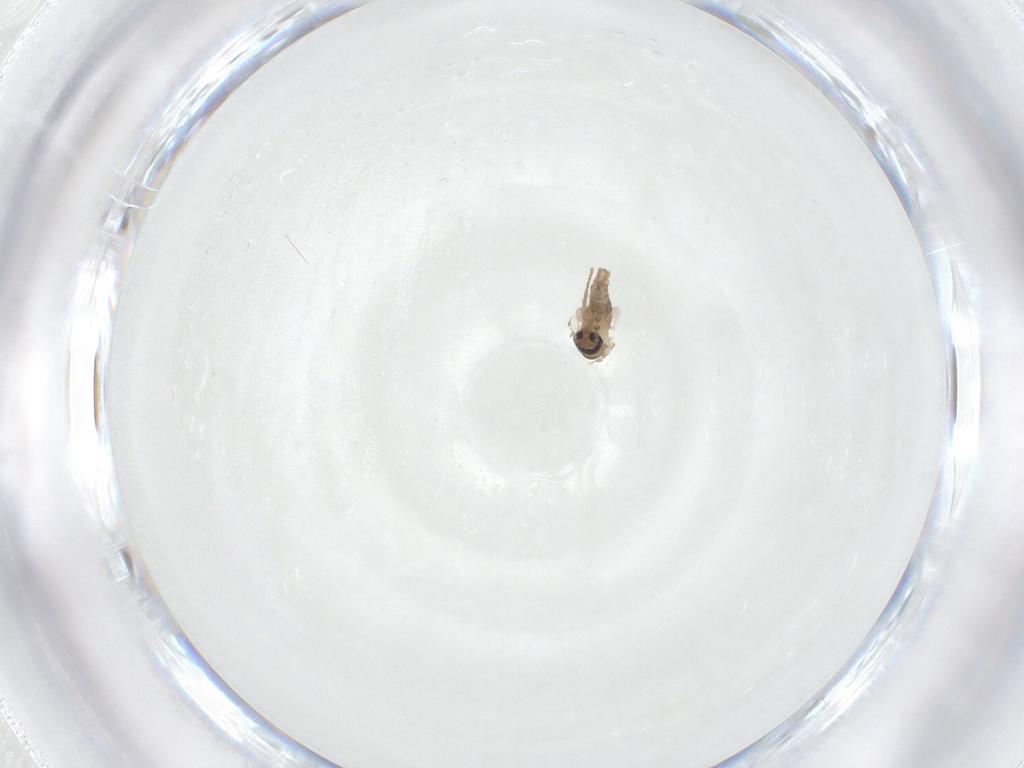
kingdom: Animalia
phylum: Arthropoda
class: Insecta
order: Diptera
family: Psychodidae
